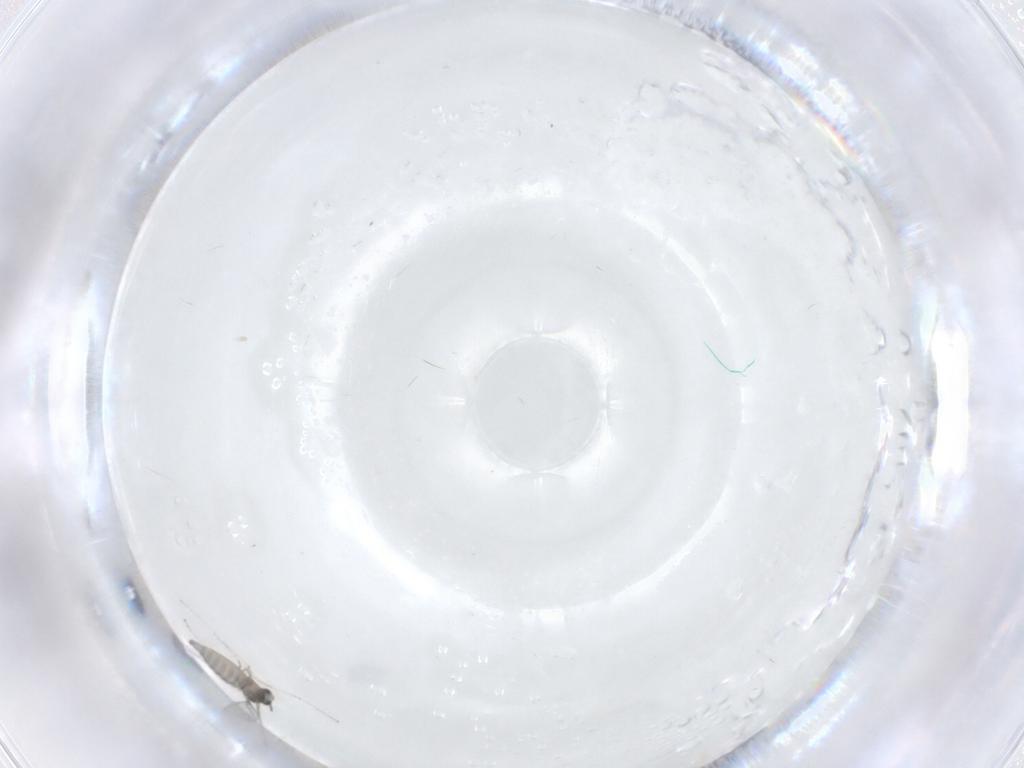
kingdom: Animalia
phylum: Arthropoda
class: Insecta
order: Diptera
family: Cecidomyiidae
